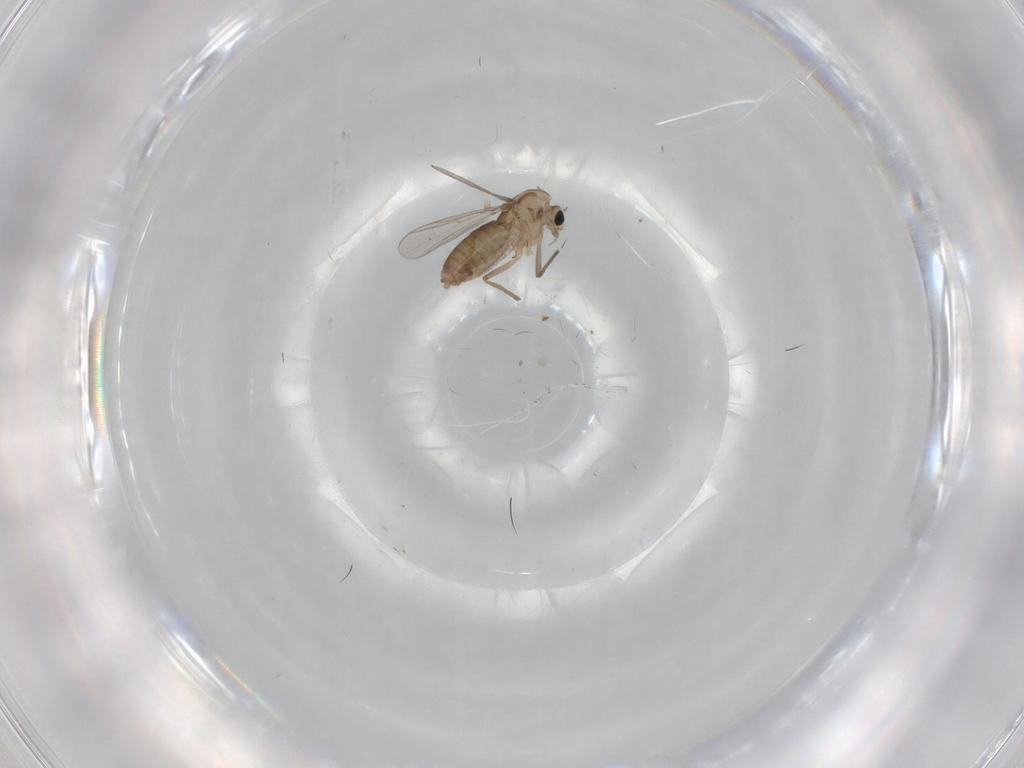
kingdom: Animalia
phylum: Arthropoda
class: Insecta
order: Diptera
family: Chironomidae
